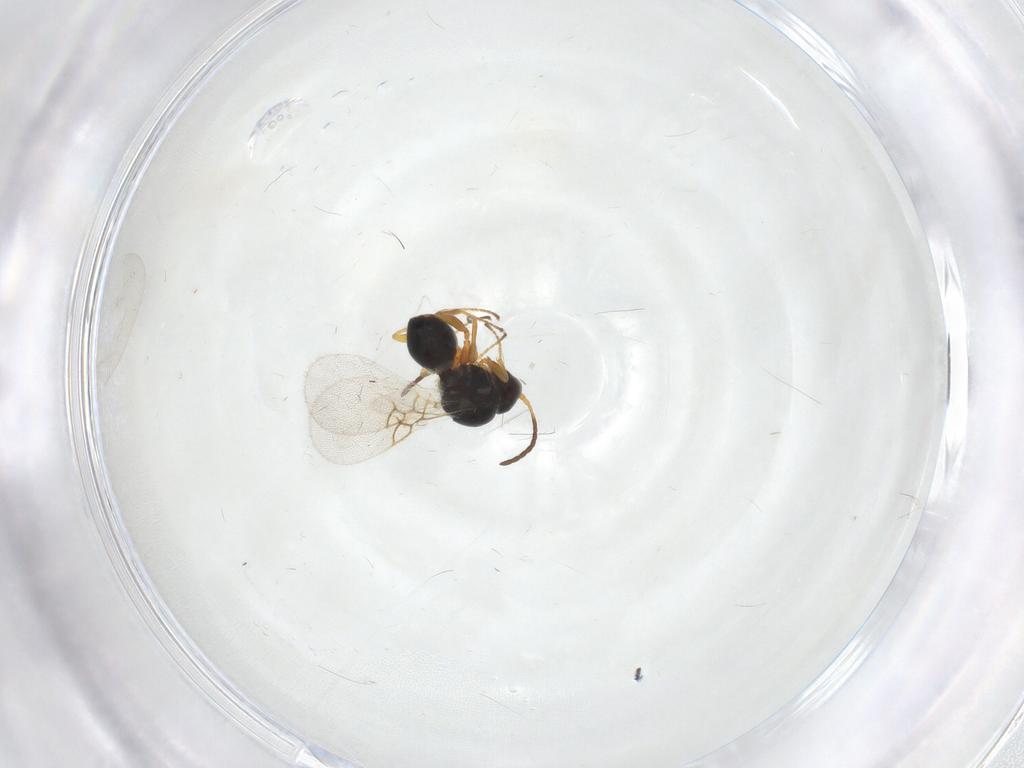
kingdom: Animalia
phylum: Arthropoda
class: Insecta
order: Hymenoptera
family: Figitidae
